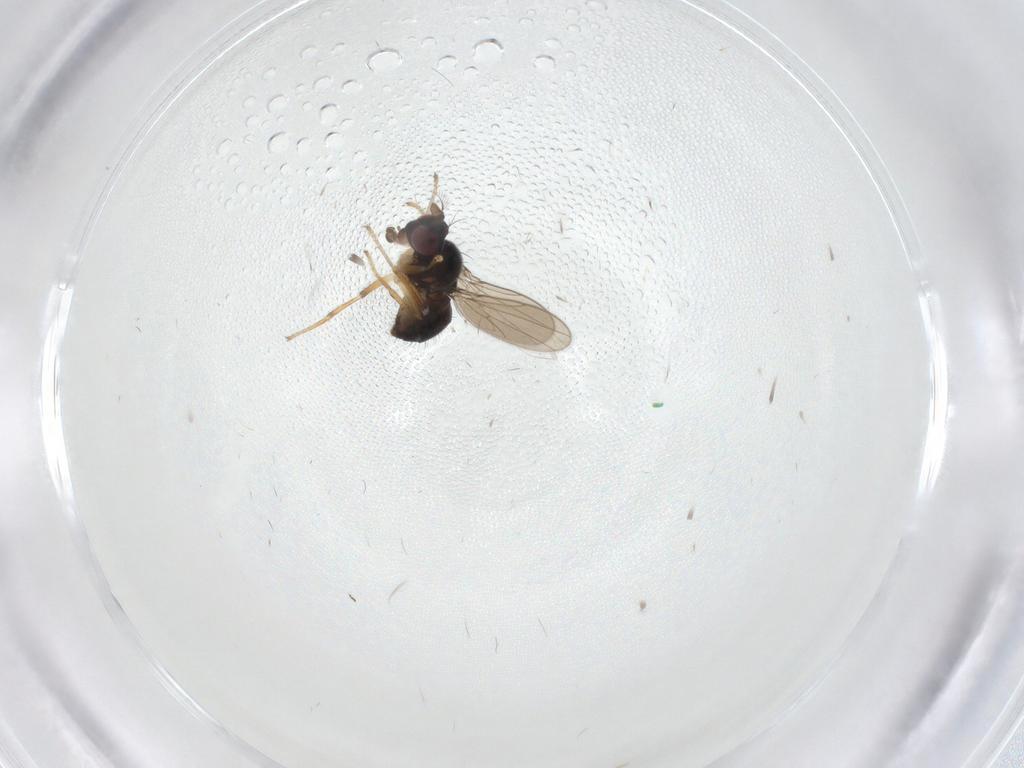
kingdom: Animalia
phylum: Arthropoda
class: Insecta
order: Diptera
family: Ephydridae
